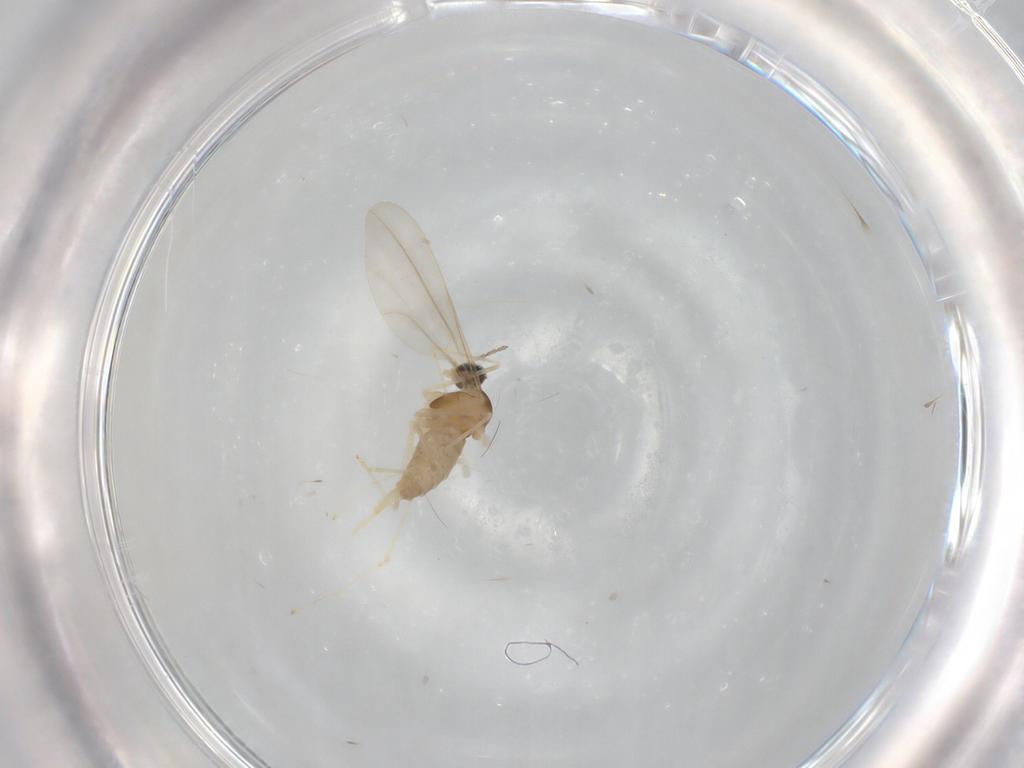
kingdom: Animalia
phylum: Arthropoda
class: Insecta
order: Diptera
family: Cecidomyiidae
